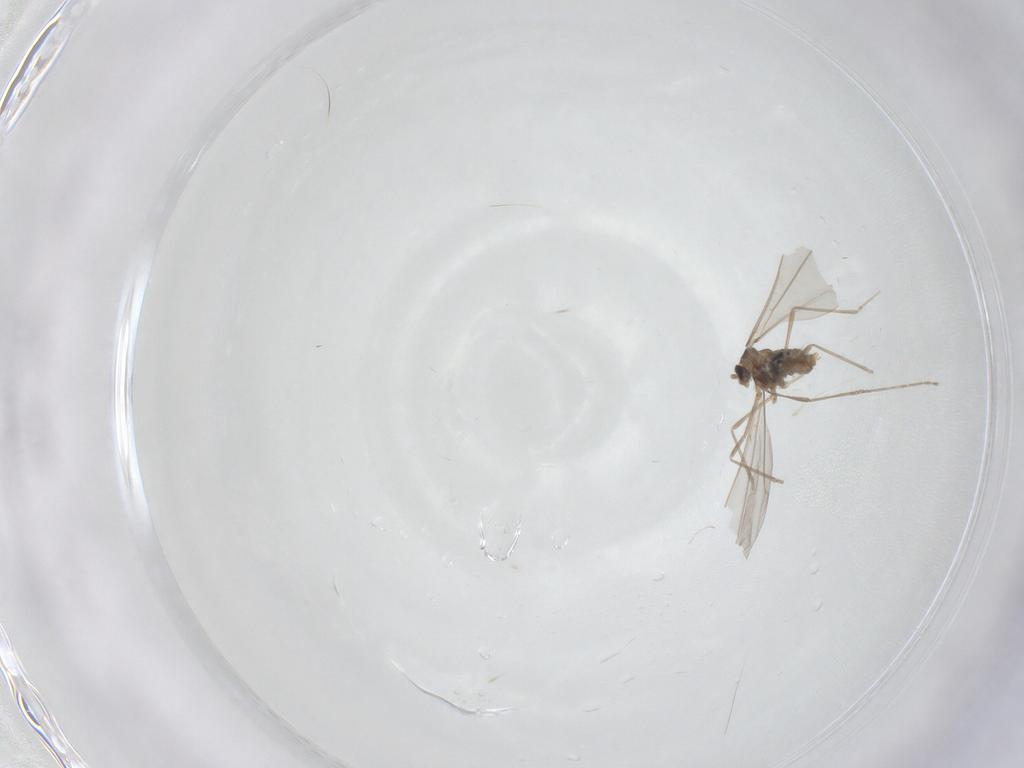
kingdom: Animalia
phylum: Arthropoda
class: Insecta
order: Diptera
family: Cecidomyiidae
